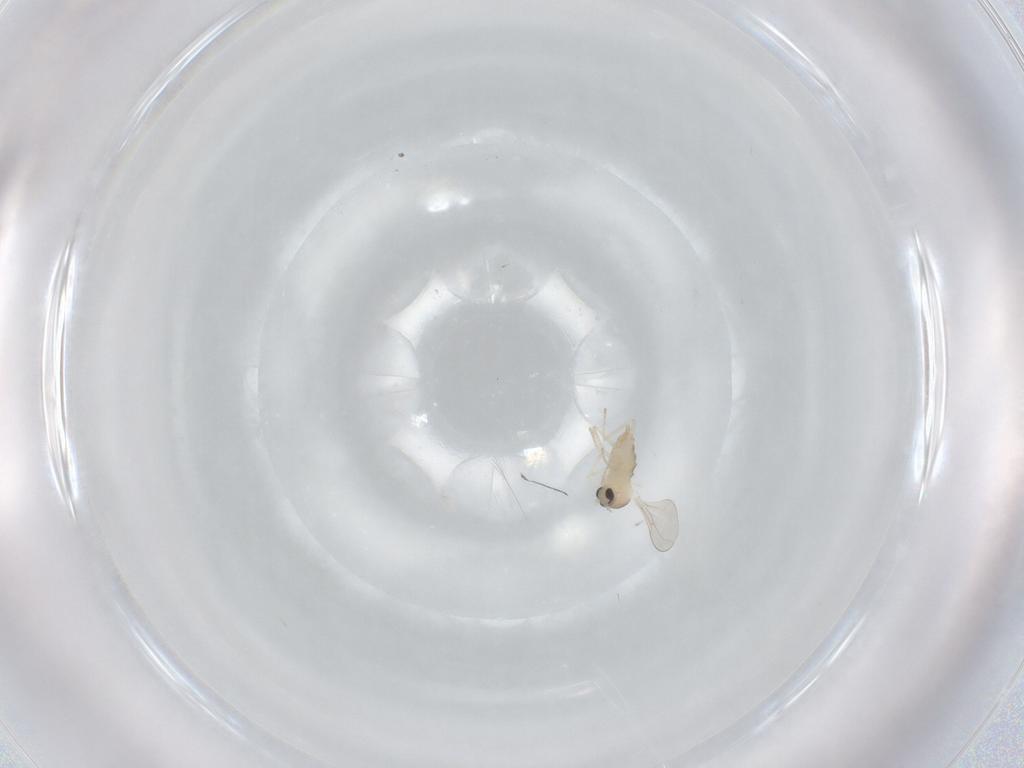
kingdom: Animalia
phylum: Arthropoda
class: Insecta
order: Diptera
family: Cecidomyiidae
